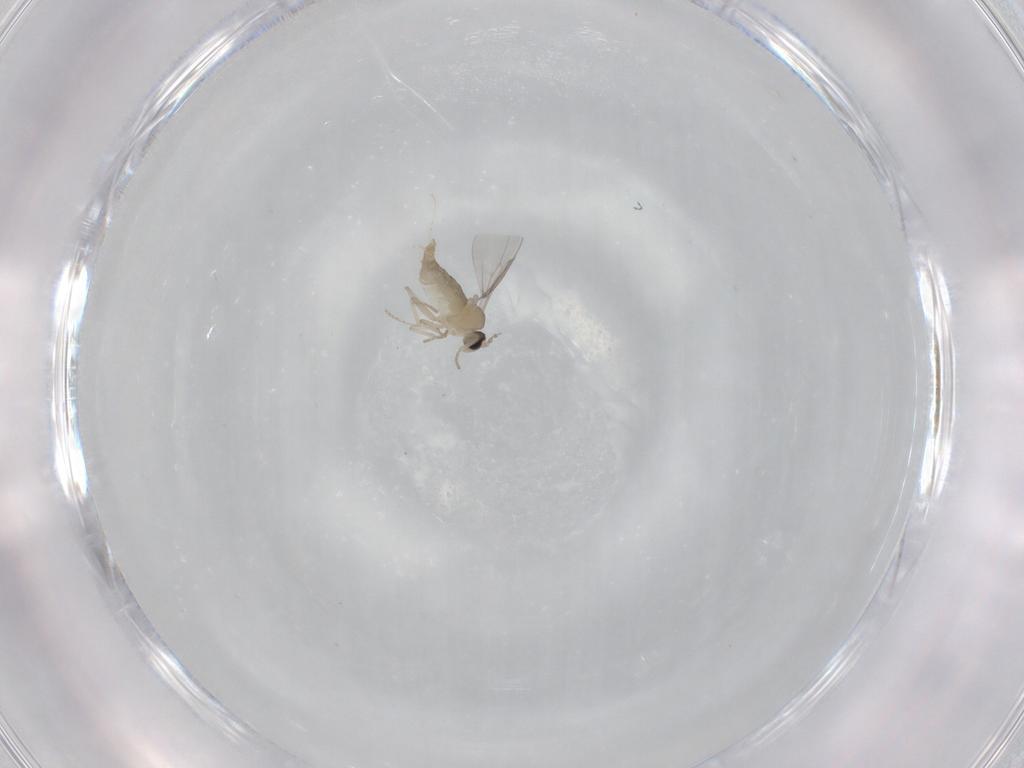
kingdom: Animalia
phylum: Arthropoda
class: Insecta
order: Diptera
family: Cecidomyiidae
